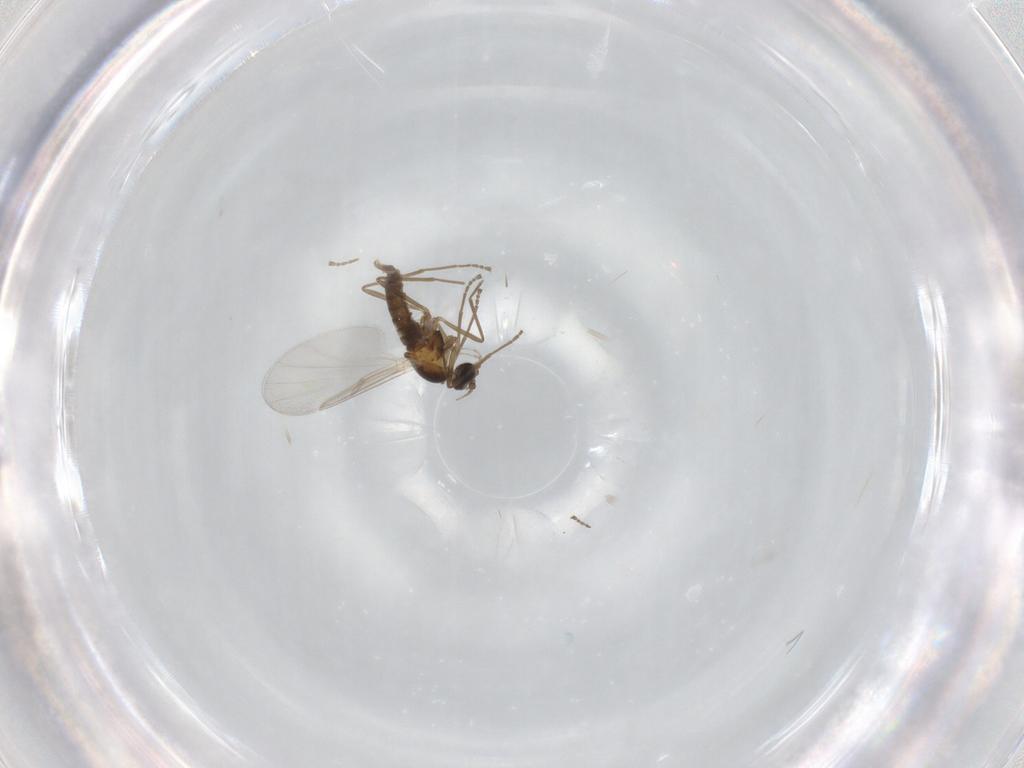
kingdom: Animalia
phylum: Arthropoda
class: Insecta
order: Diptera
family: Cecidomyiidae
